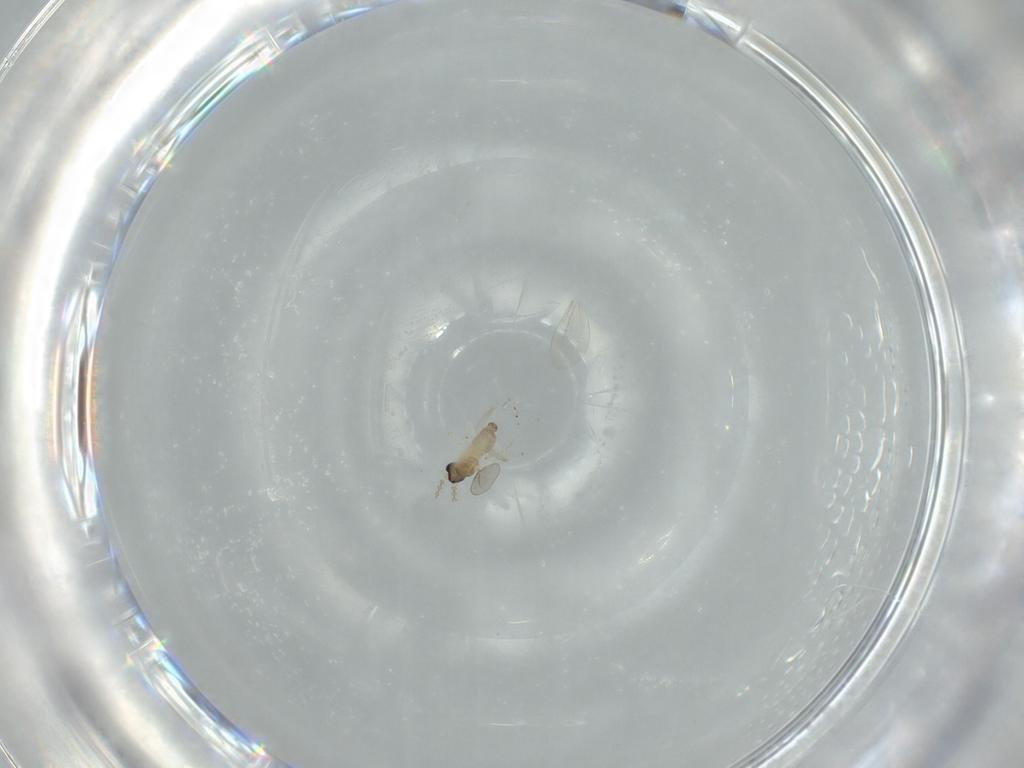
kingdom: Animalia
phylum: Arthropoda
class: Insecta
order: Diptera
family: Cecidomyiidae
